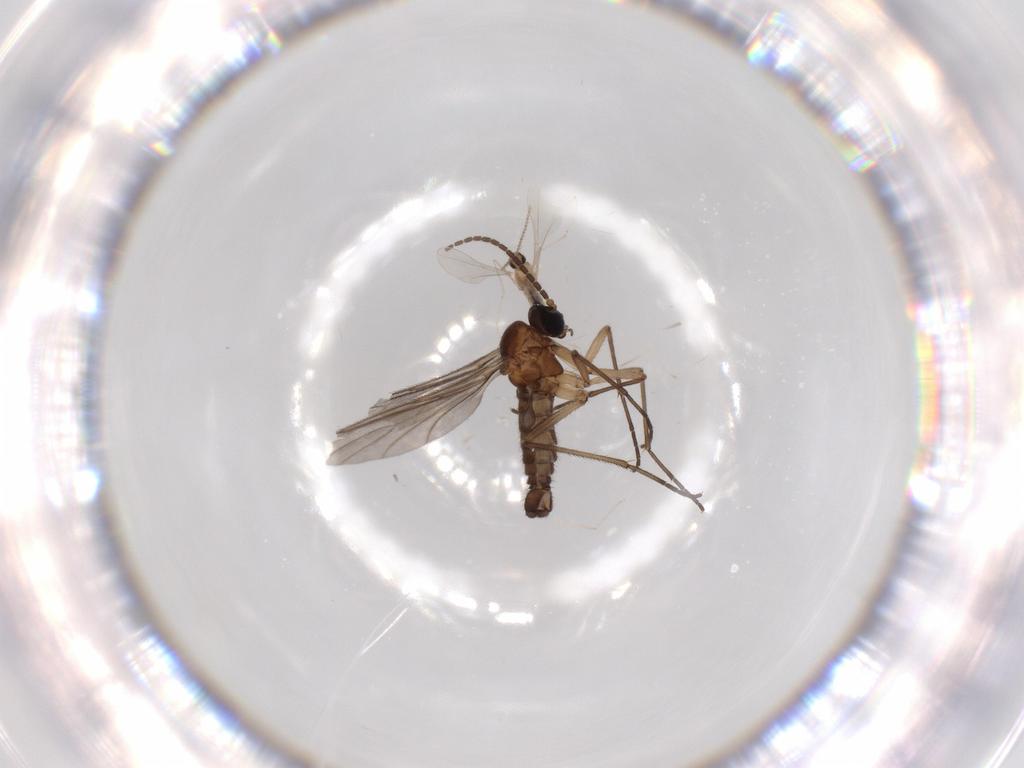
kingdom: Animalia
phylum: Arthropoda
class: Insecta
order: Diptera
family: Sciaridae
